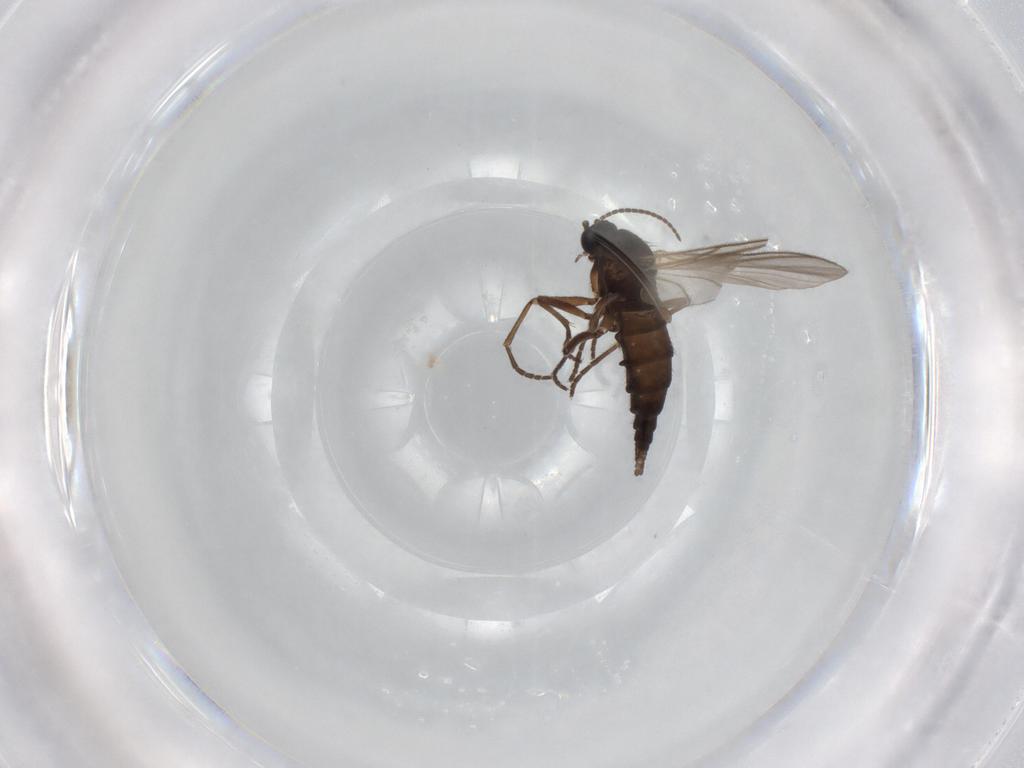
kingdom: Animalia
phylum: Arthropoda
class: Insecta
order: Diptera
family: Sciaridae
